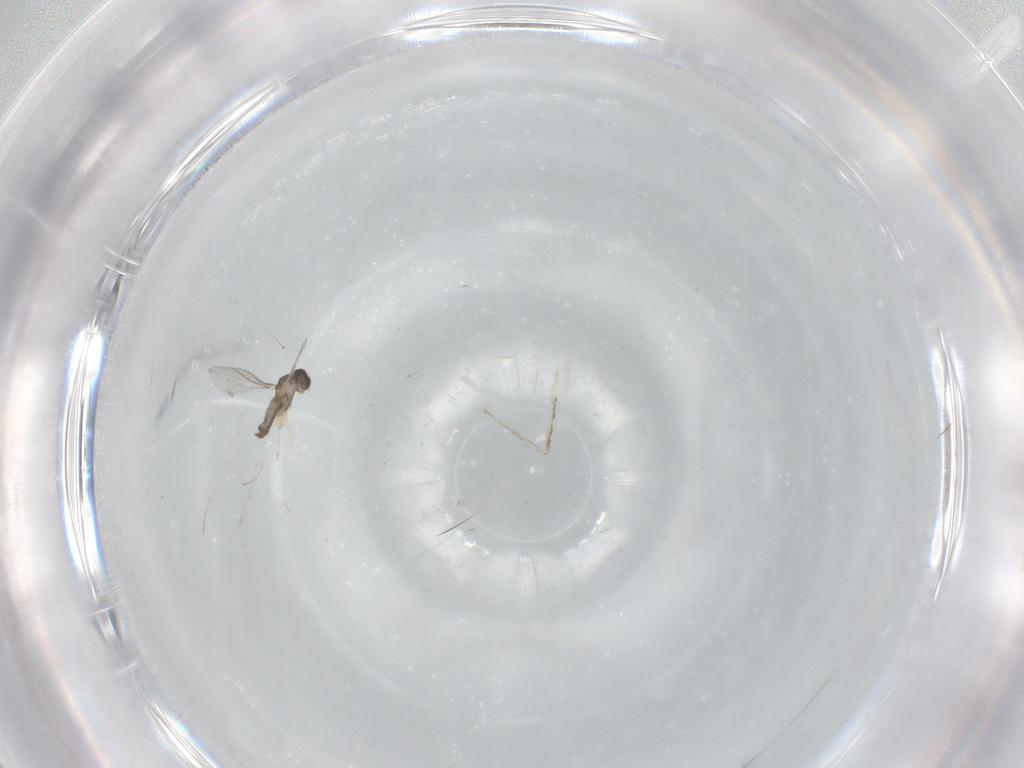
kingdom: Animalia
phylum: Arthropoda
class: Insecta
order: Diptera
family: Cecidomyiidae
